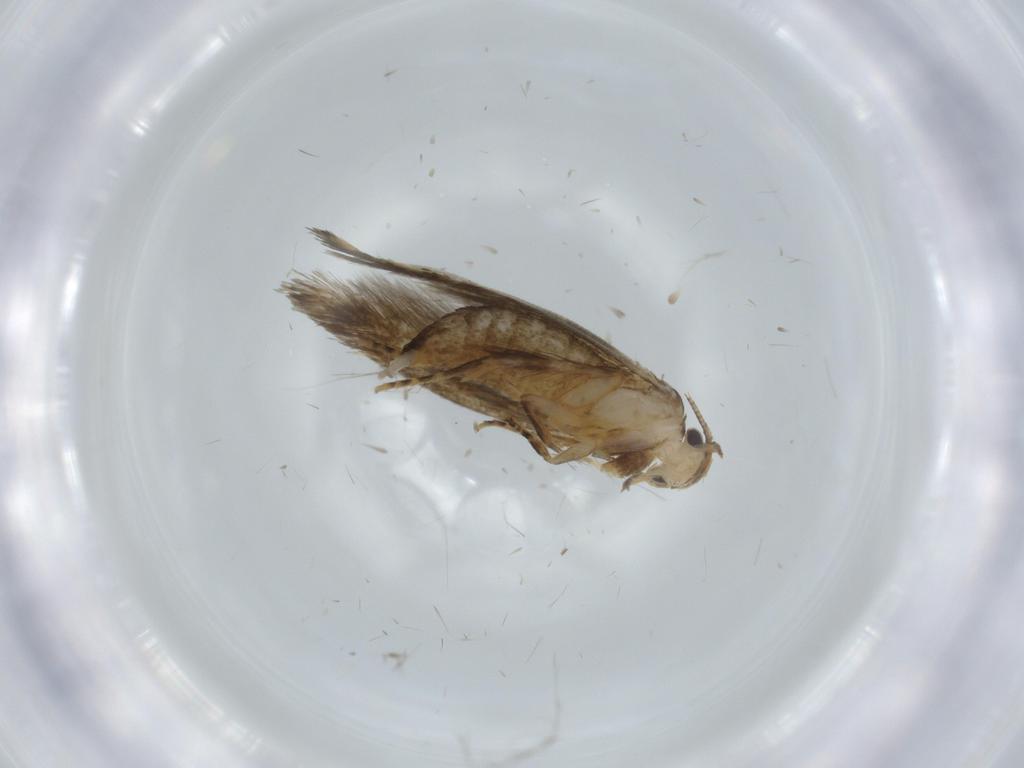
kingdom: Animalia
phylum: Arthropoda
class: Insecta
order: Lepidoptera
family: Tineidae
